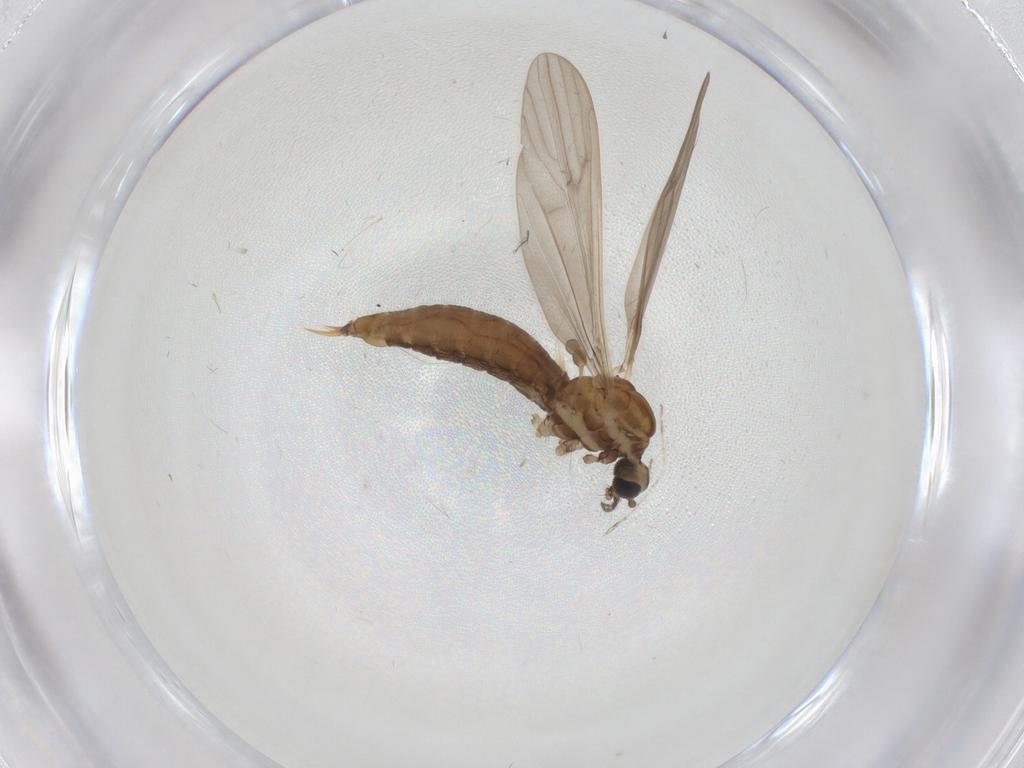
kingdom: Animalia
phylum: Arthropoda
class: Insecta
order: Diptera
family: Limoniidae
